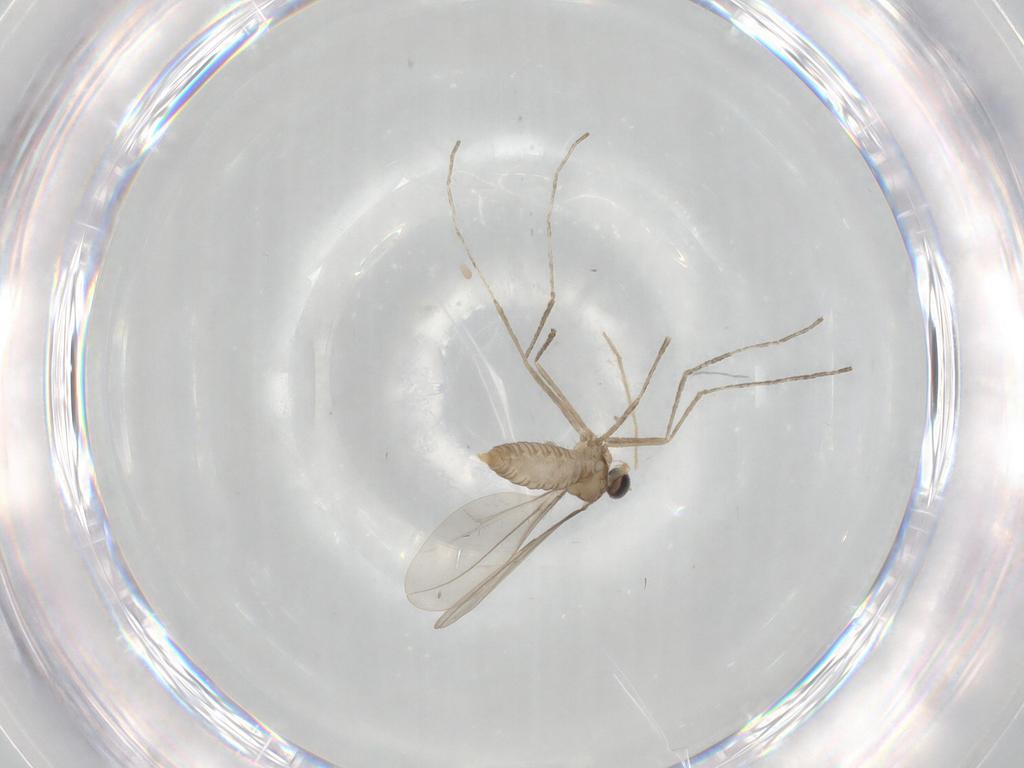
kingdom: Animalia
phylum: Arthropoda
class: Insecta
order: Diptera
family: Cecidomyiidae
